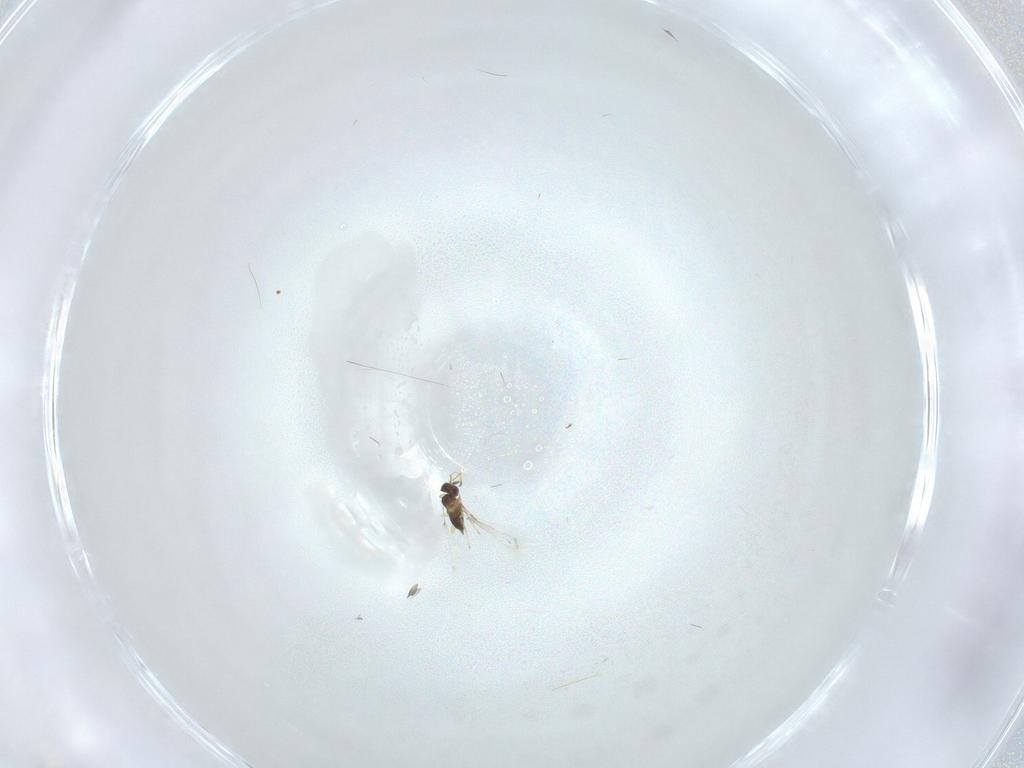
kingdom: Animalia
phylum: Arthropoda
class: Insecta
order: Hymenoptera
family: Mymaridae
